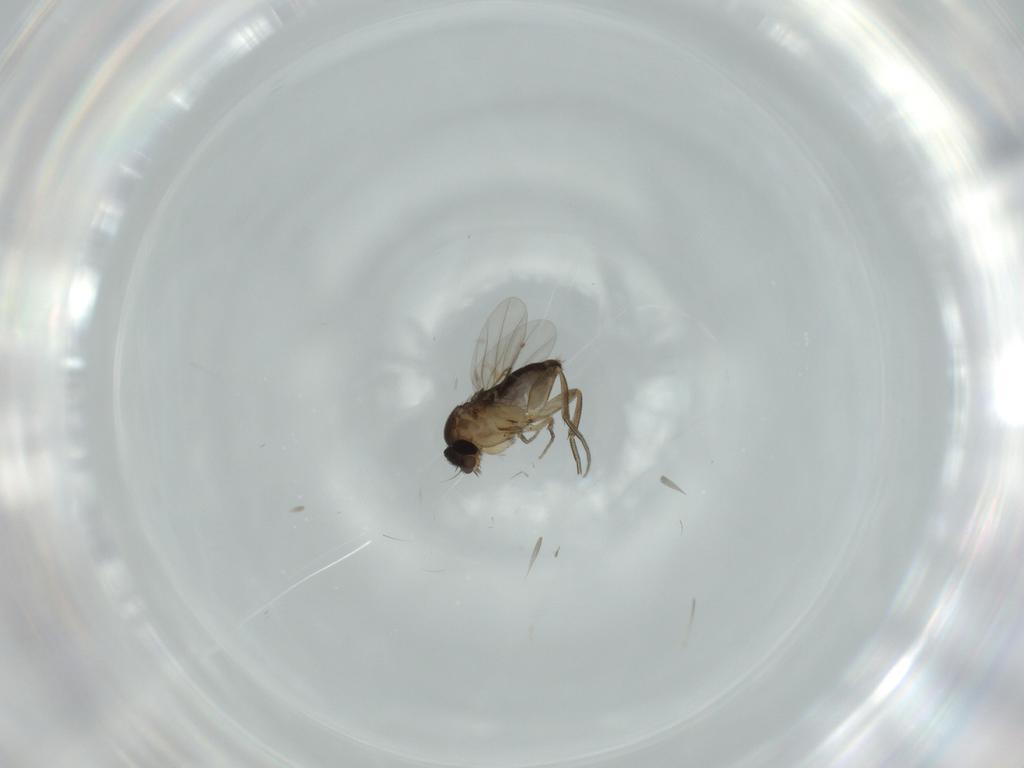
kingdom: Animalia
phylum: Arthropoda
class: Insecta
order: Diptera
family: Phoridae
